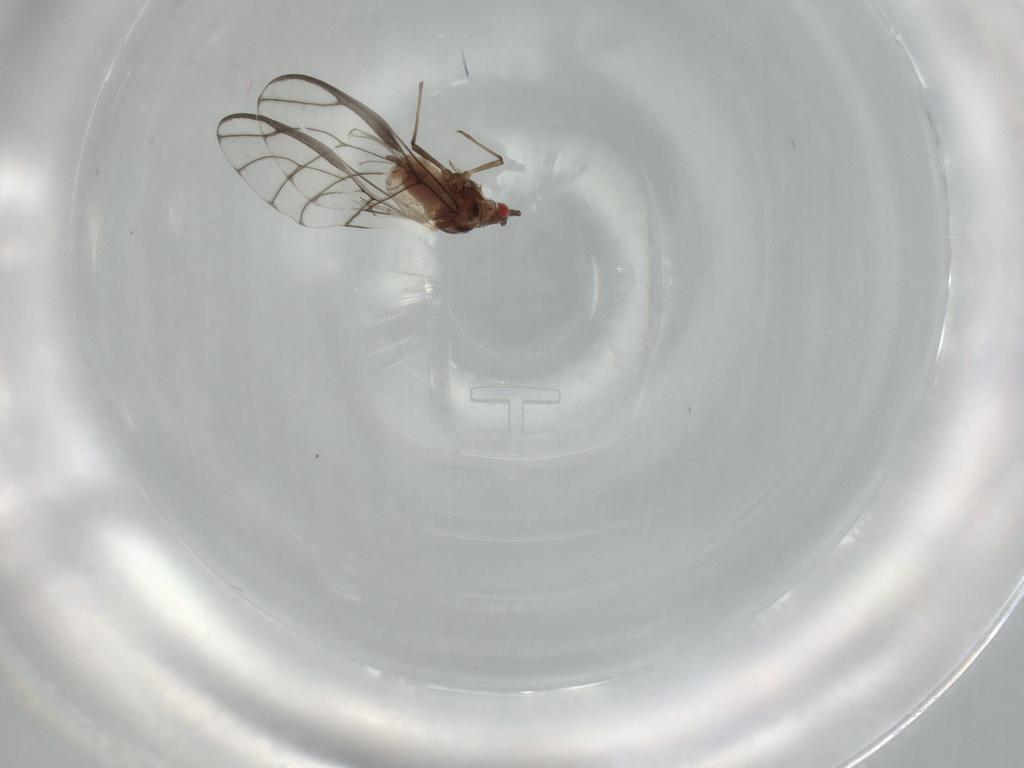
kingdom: Animalia
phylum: Arthropoda
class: Insecta
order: Hemiptera
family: Aphididae
